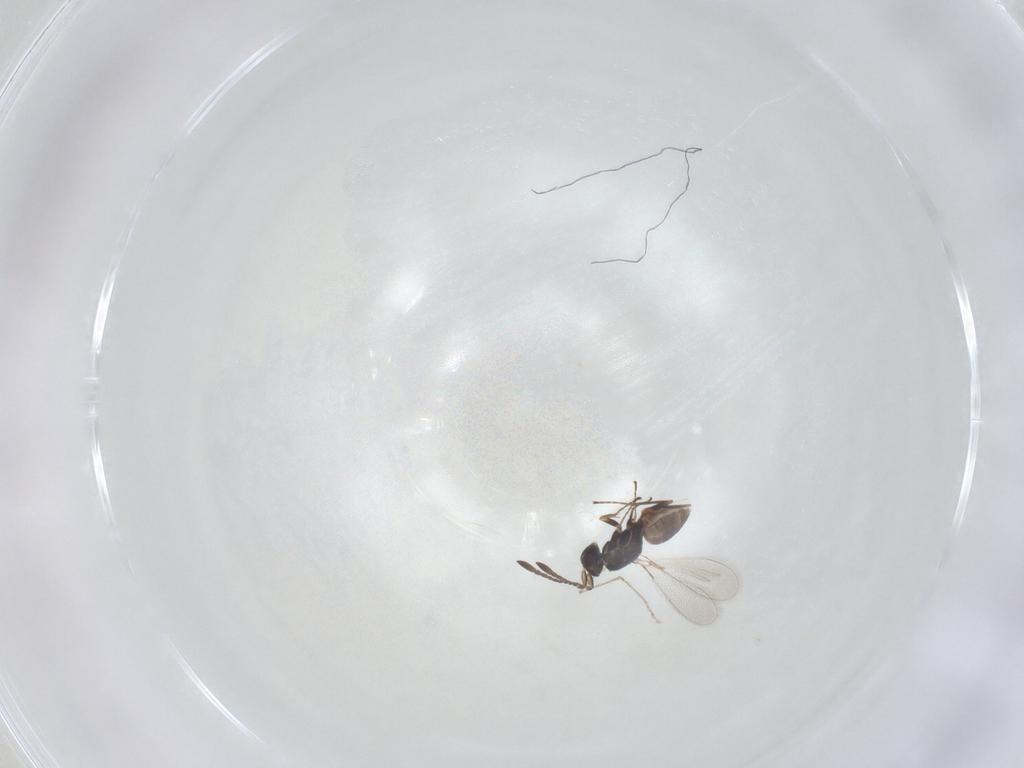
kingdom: Animalia
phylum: Arthropoda
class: Insecta
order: Hymenoptera
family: Mymaridae
